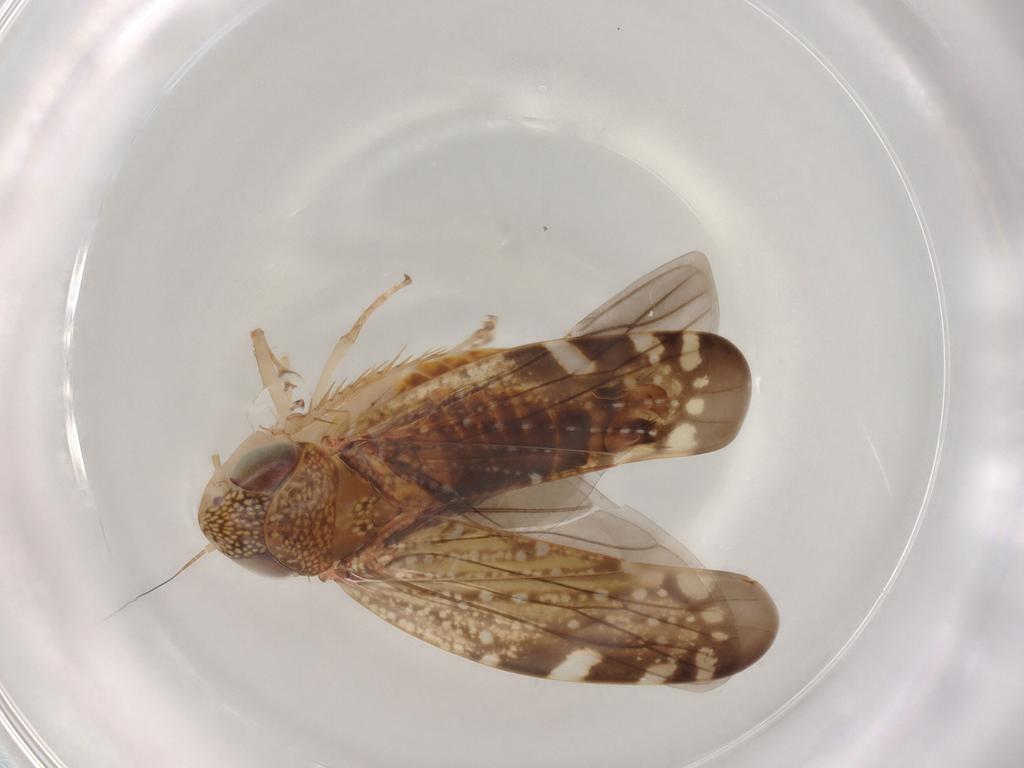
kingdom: Animalia
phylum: Arthropoda
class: Insecta
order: Hemiptera
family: Cicadellidae
